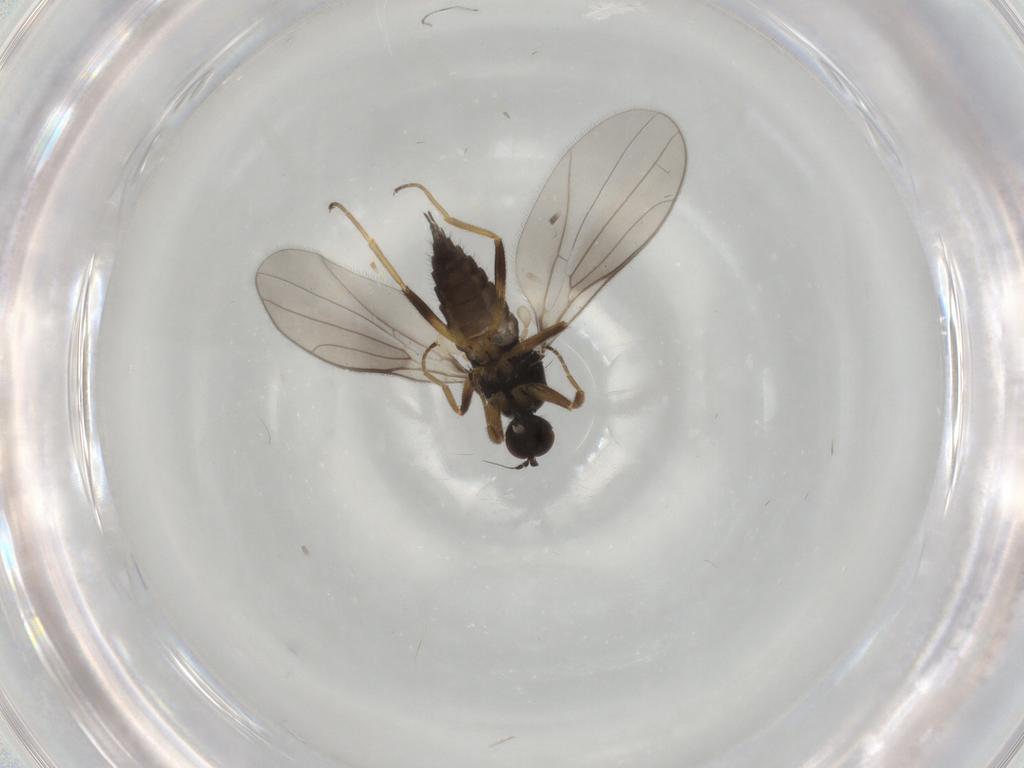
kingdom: Animalia
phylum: Arthropoda
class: Insecta
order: Diptera
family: Hybotidae
